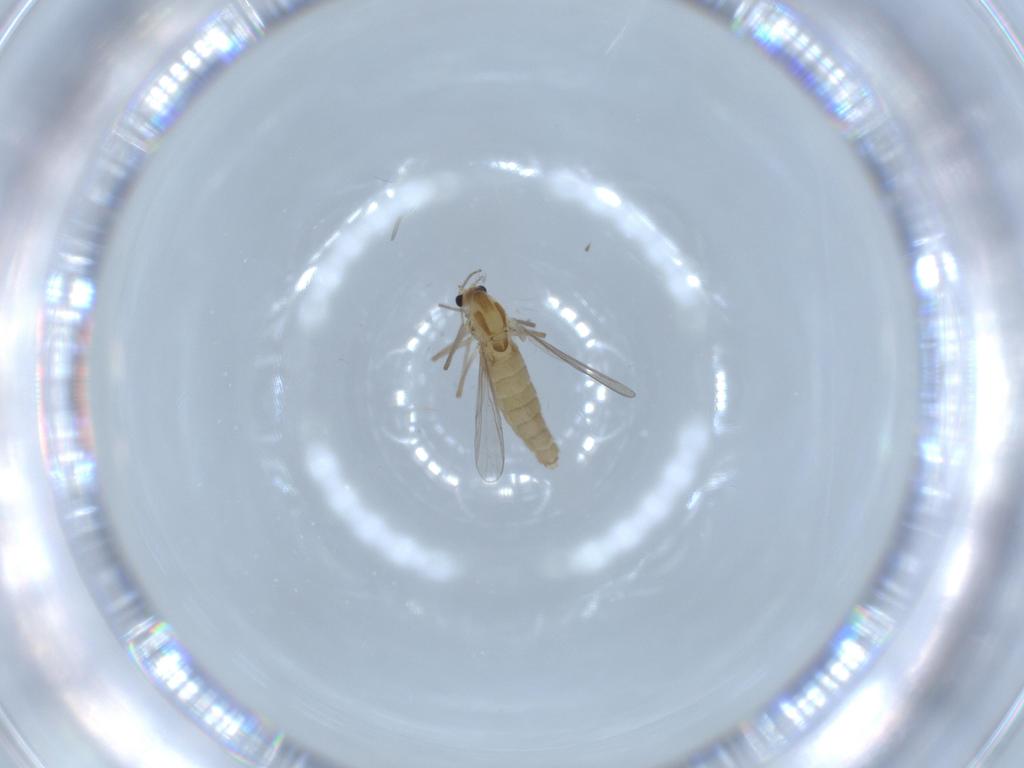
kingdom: Animalia
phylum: Arthropoda
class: Insecta
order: Diptera
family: Chironomidae
